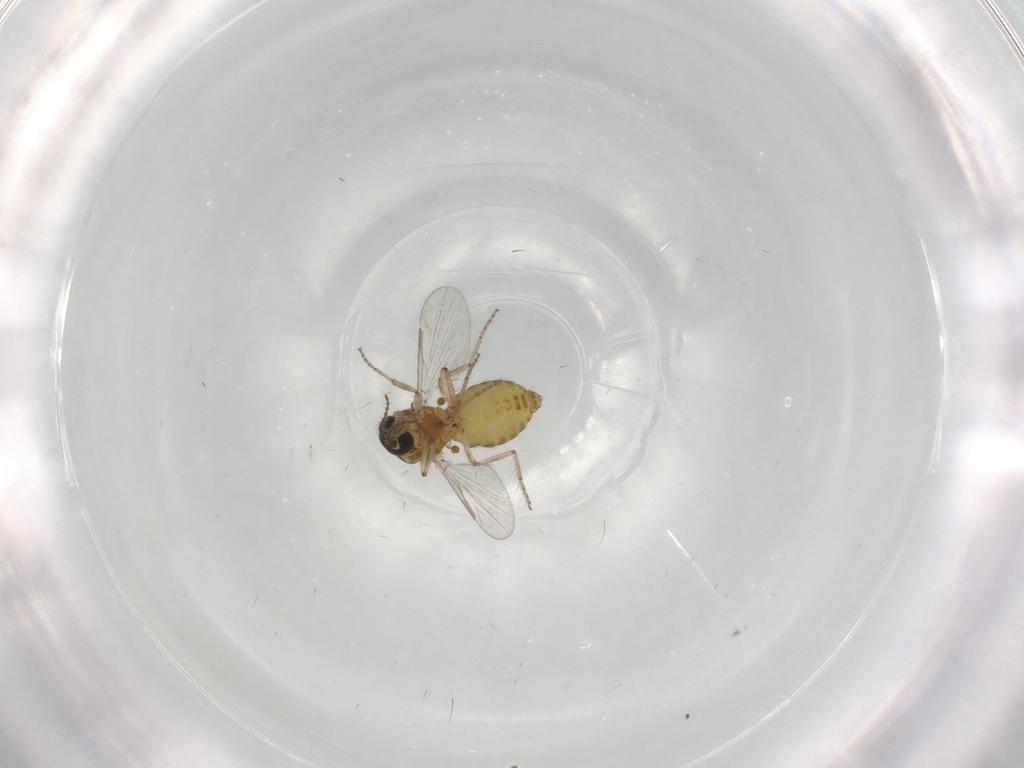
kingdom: Animalia
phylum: Arthropoda
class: Insecta
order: Diptera
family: Ceratopogonidae
